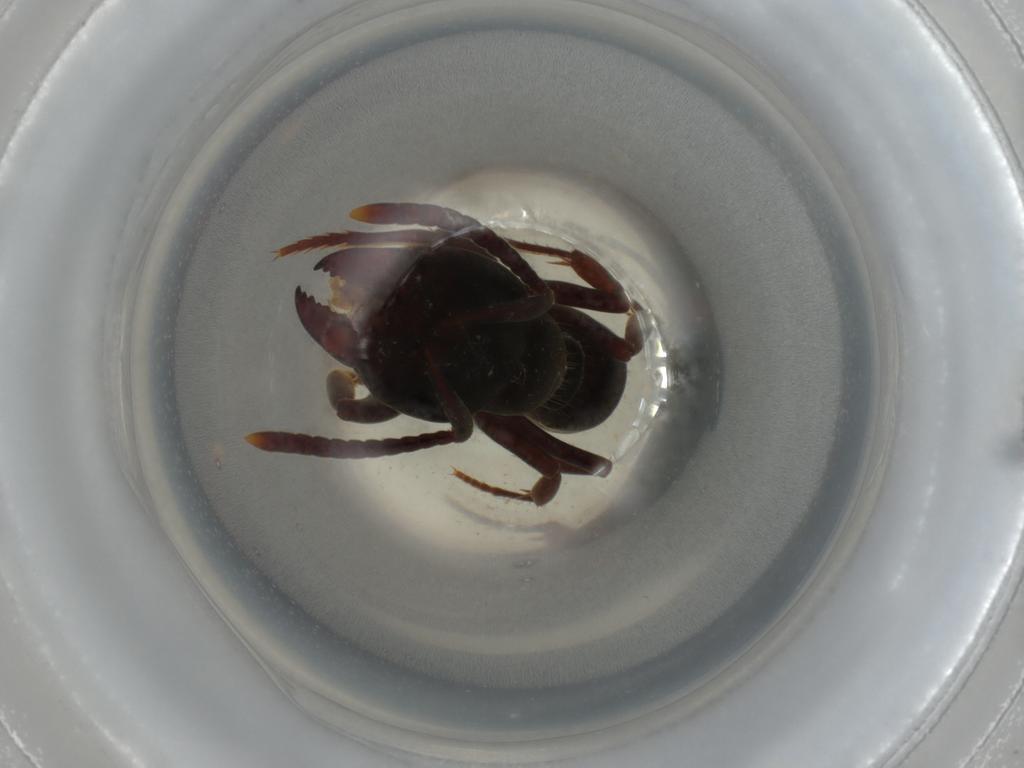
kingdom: Animalia
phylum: Arthropoda
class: Insecta
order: Hymenoptera
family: Formicidae
